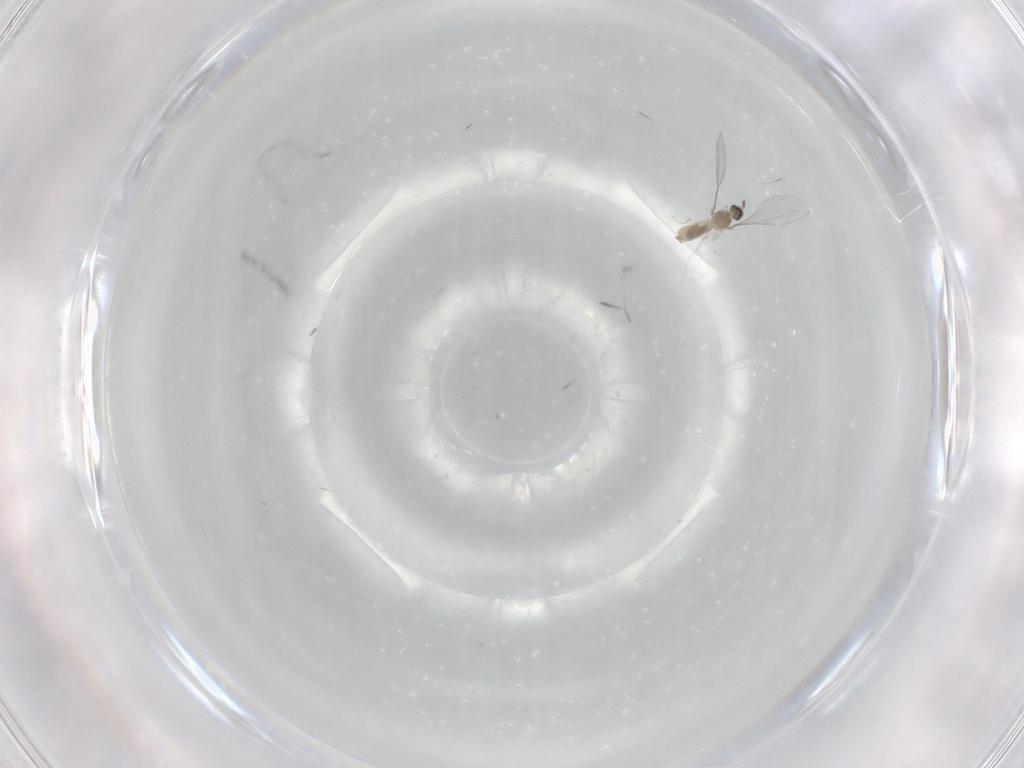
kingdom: Animalia
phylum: Arthropoda
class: Insecta
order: Diptera
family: Cecidomyiidae
